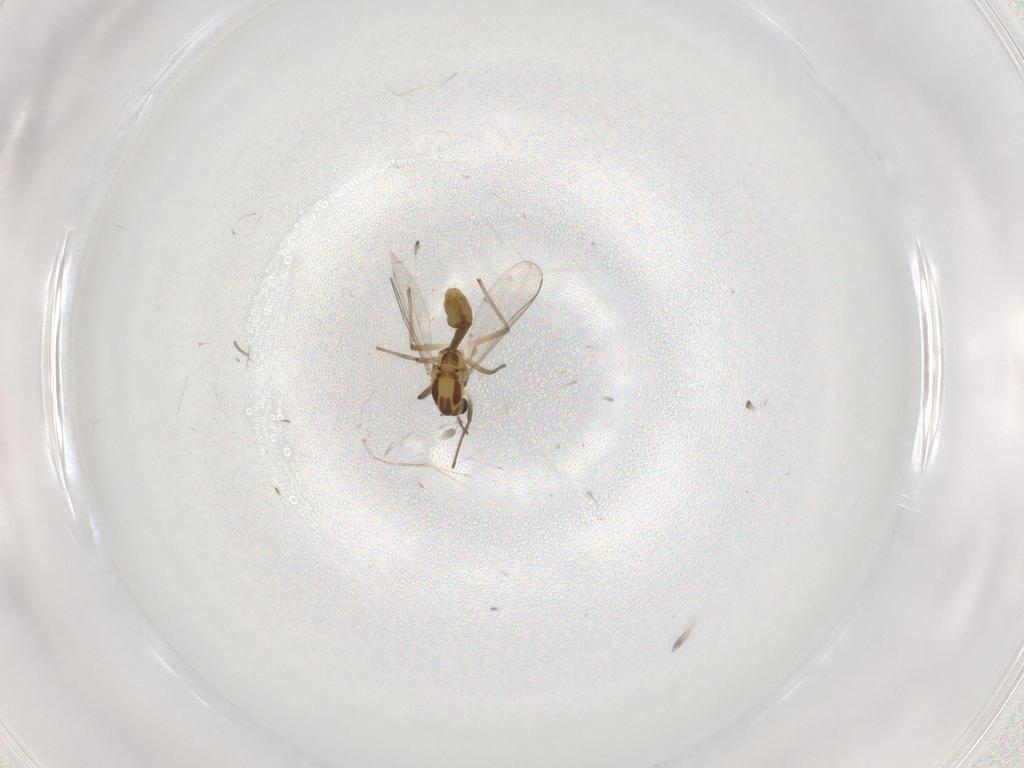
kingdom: Animalia
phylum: Arthropoda
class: Insecta
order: Diptera
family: Chironomidae
